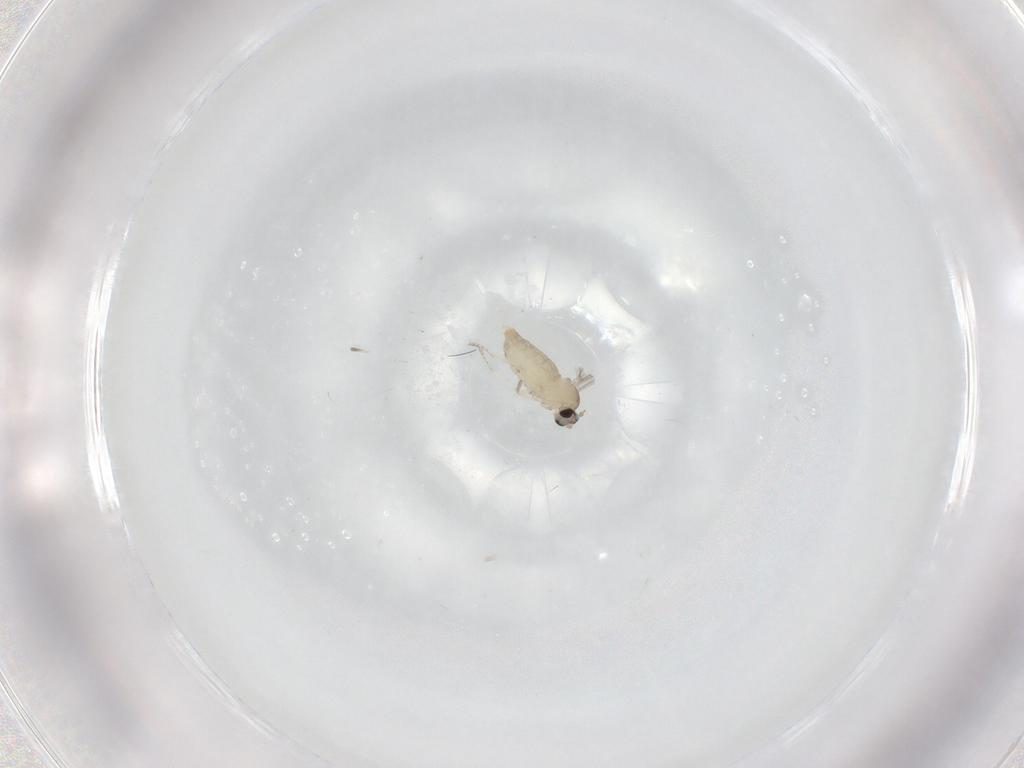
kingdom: Animalia
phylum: Arthropoda
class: Insecta
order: Diptera
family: Cecidomyiidae
